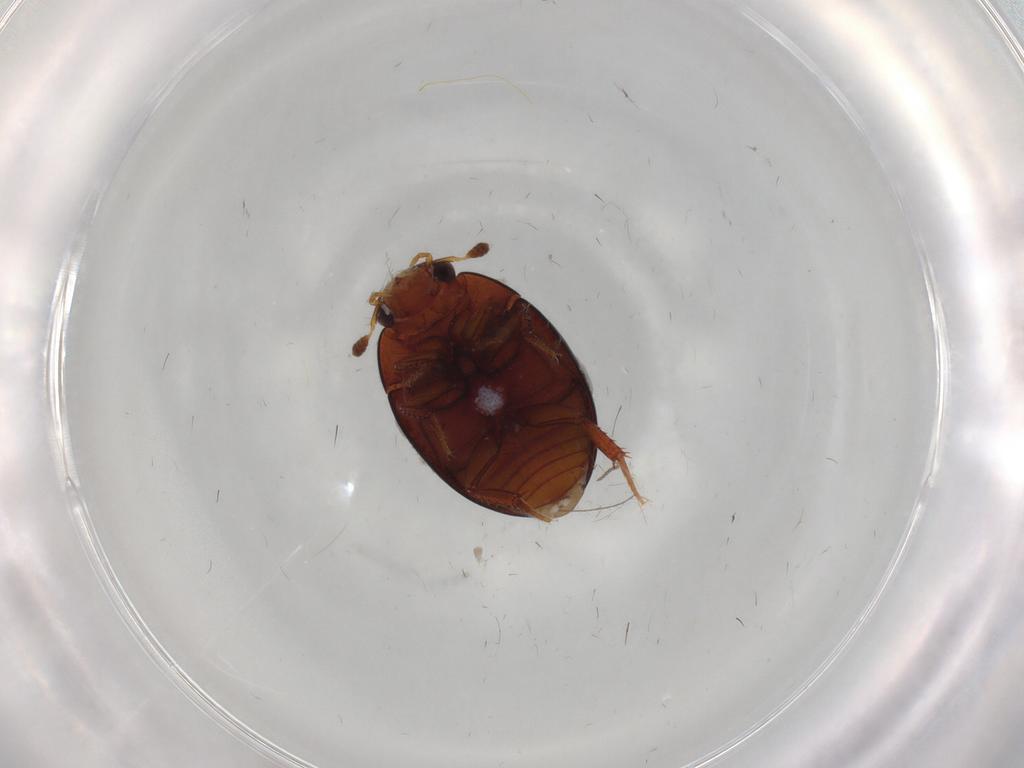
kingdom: Animalia
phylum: Arthropoda
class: Insecta
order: Coleoptera
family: Hydrophilidae
